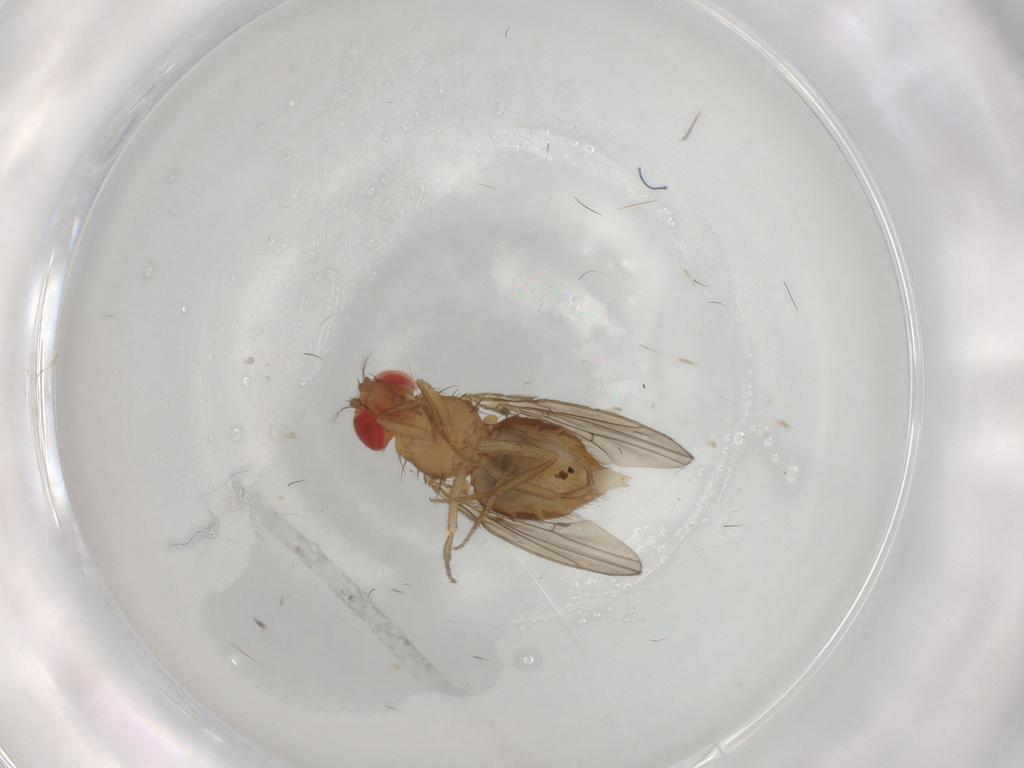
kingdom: Animalia
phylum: Arthropoda
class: Insecta
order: Diptera
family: Drosophilidae
